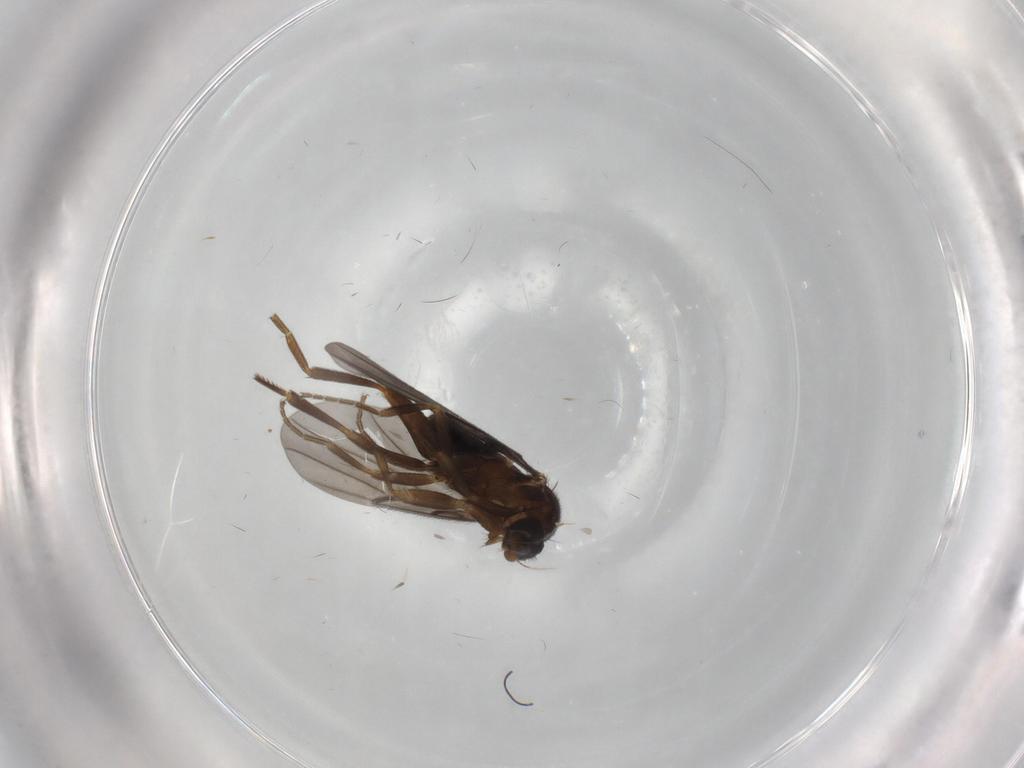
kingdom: Animalia
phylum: Arthropoda
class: Insecta
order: Diptera
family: Phoridae
